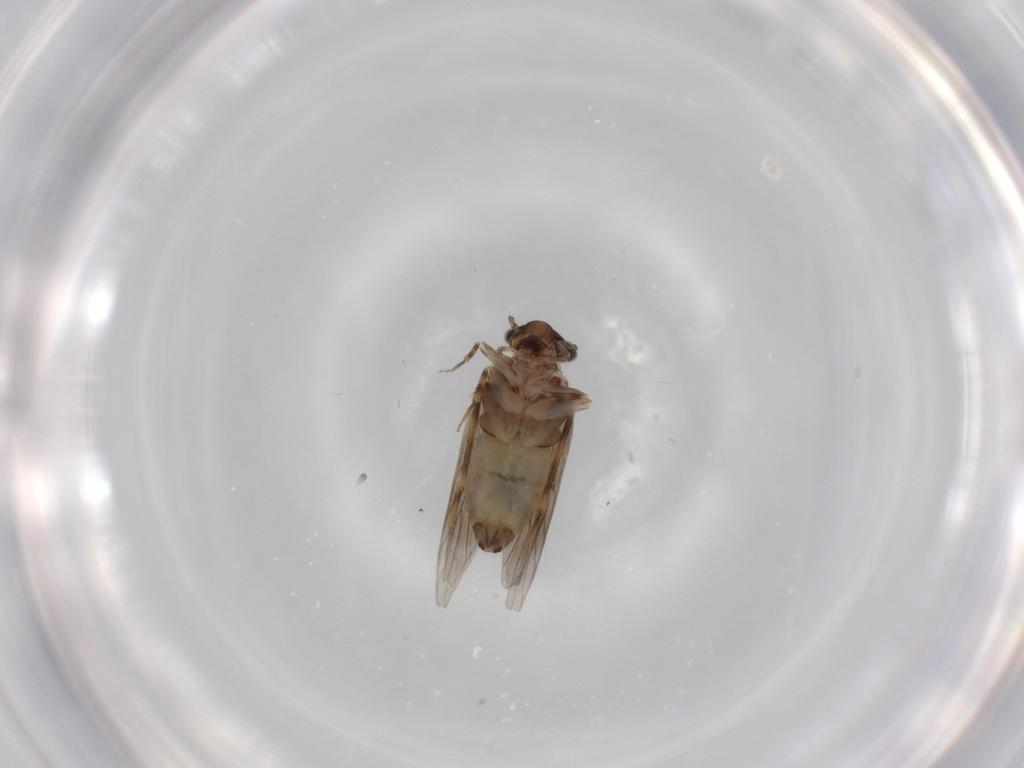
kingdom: Animalia
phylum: Arthropoda
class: Insecta
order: Psocodea
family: Lepidopsocidae
